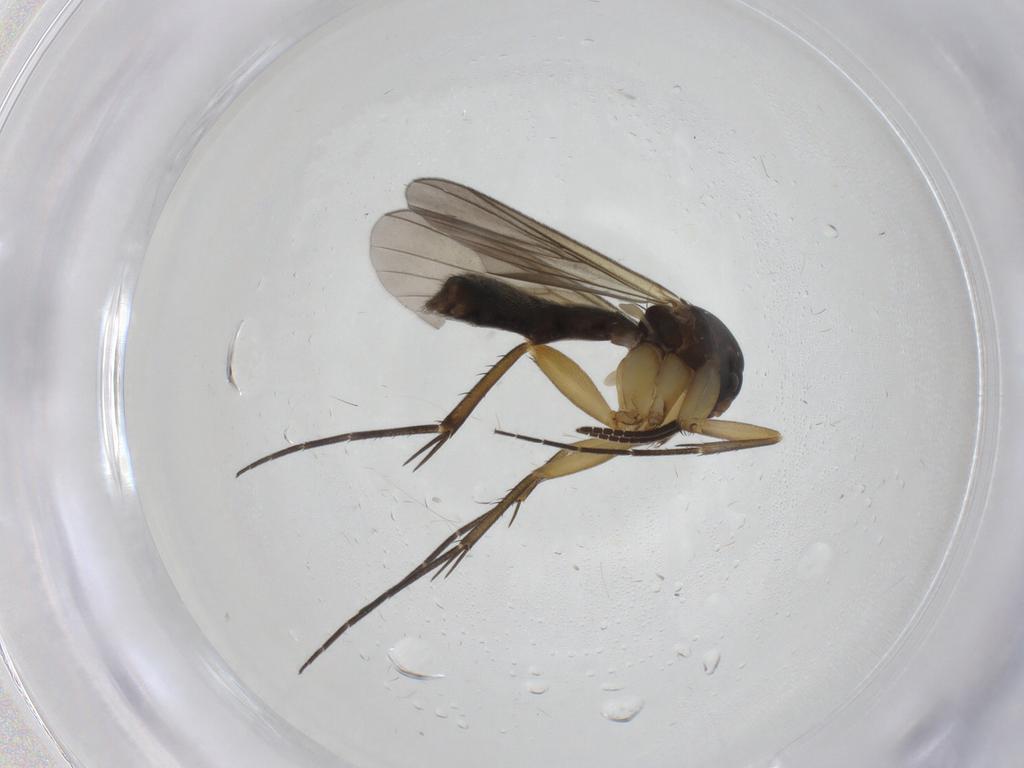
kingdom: Animalia
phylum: Arthropoda
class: Insecta
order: Diptera
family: Mycetophilidae
